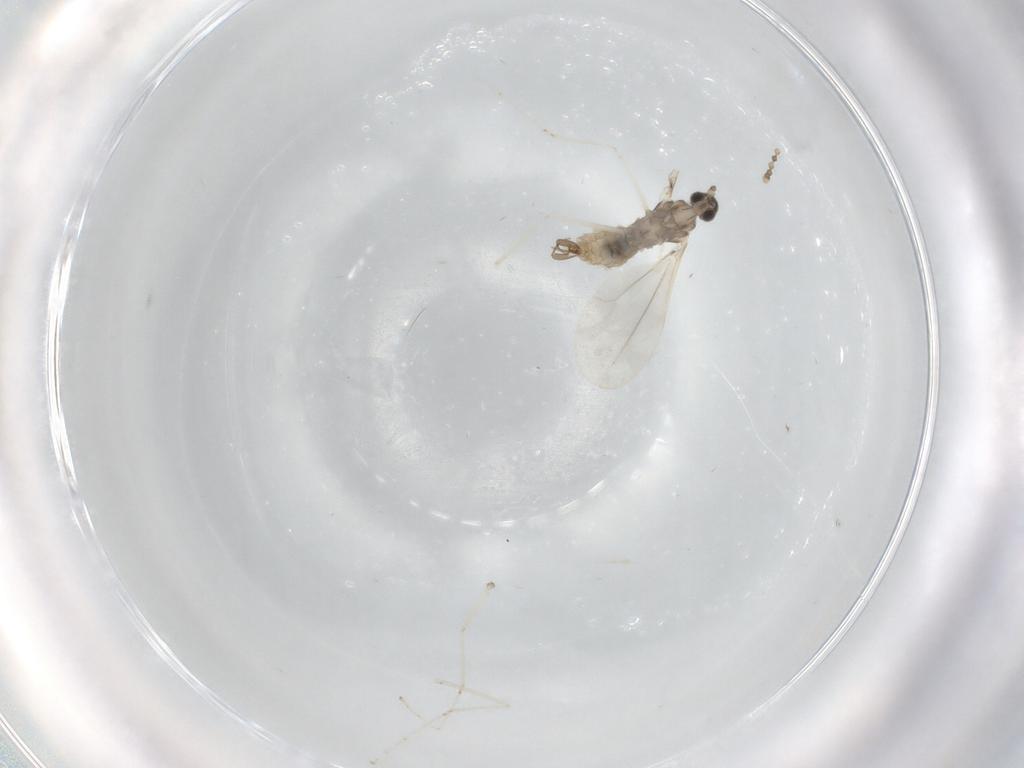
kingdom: Animalia
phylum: Arthropoda
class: Insecta
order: Diptera
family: Cecidomyiidae
